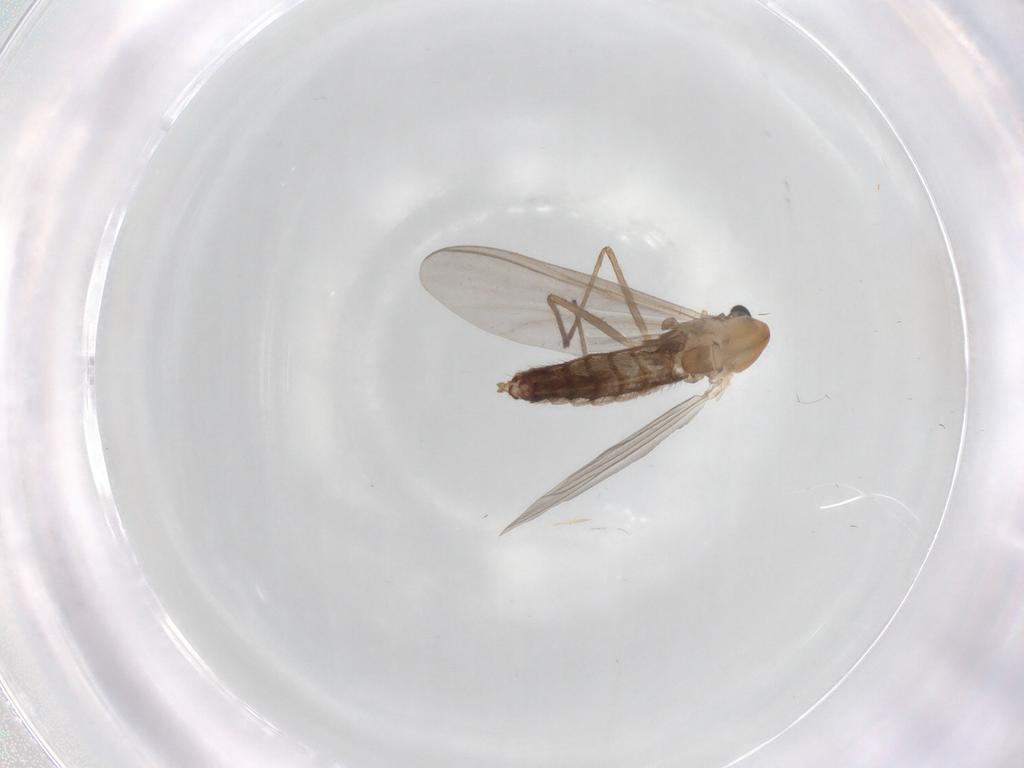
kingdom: Animalia
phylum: Arthropoda
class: Insecta
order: Diptera
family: Chironomidae
